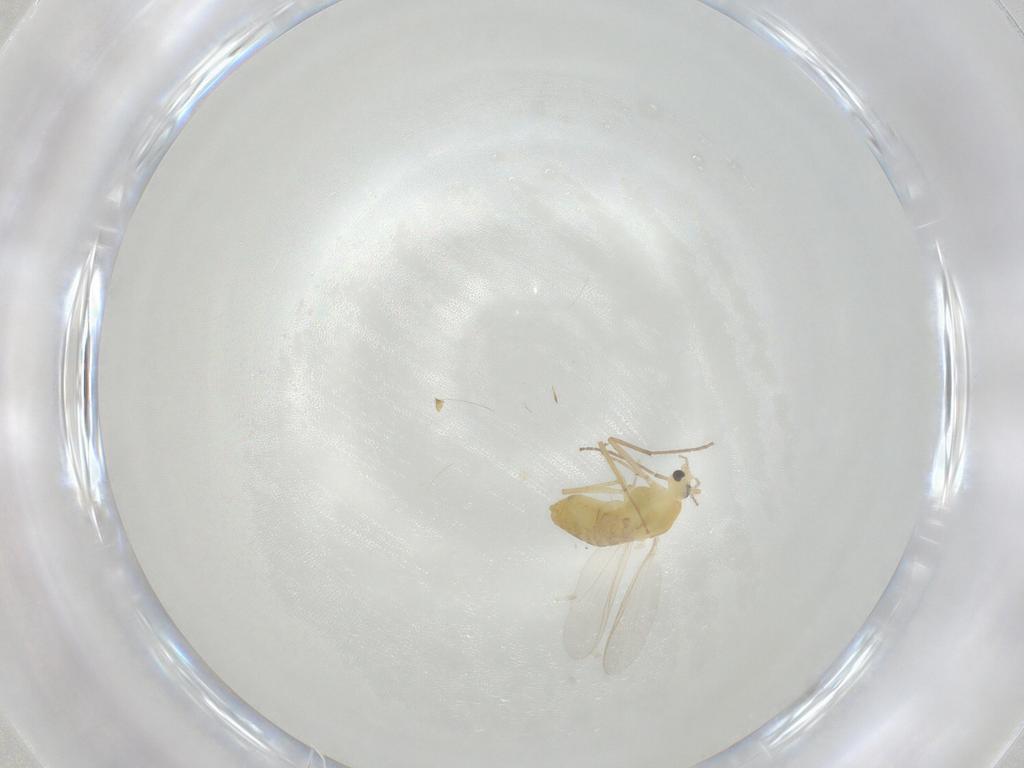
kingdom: Animalia
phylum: Arthropoda
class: Insecta
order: Diptera
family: Chironomidae
